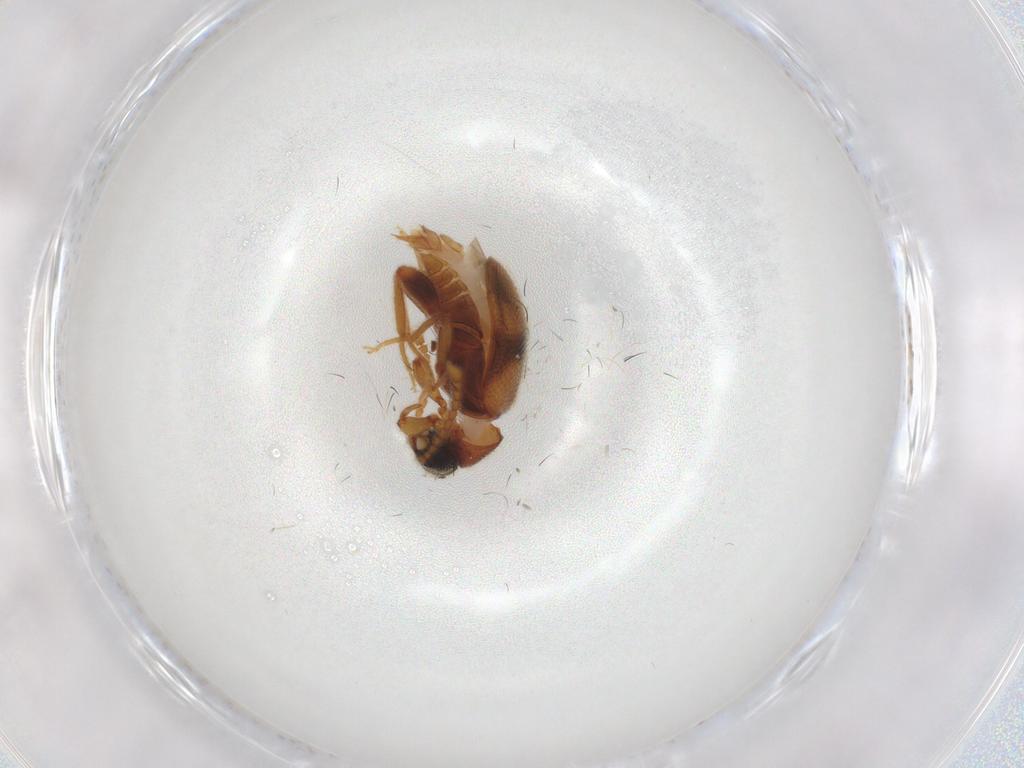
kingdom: Animalia
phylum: Arthropoda
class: Insecta
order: Coleoptera
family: Aderidae
